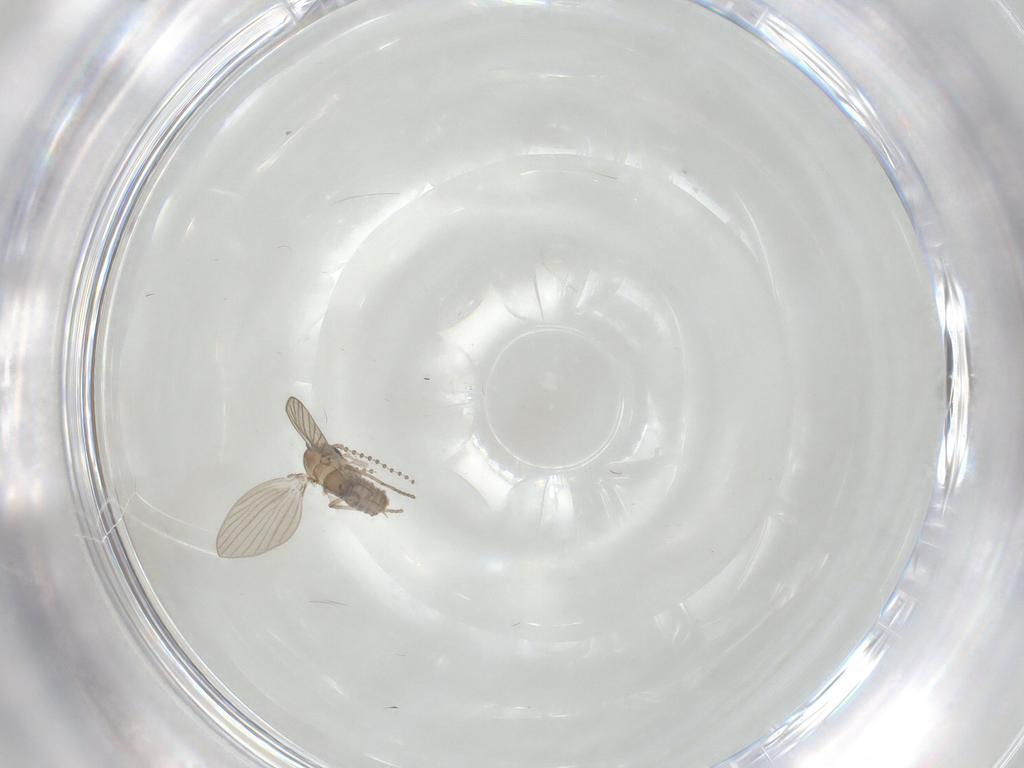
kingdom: Animalia
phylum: Arthropoda
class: Insecta
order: Diptera
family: Psychodidae
